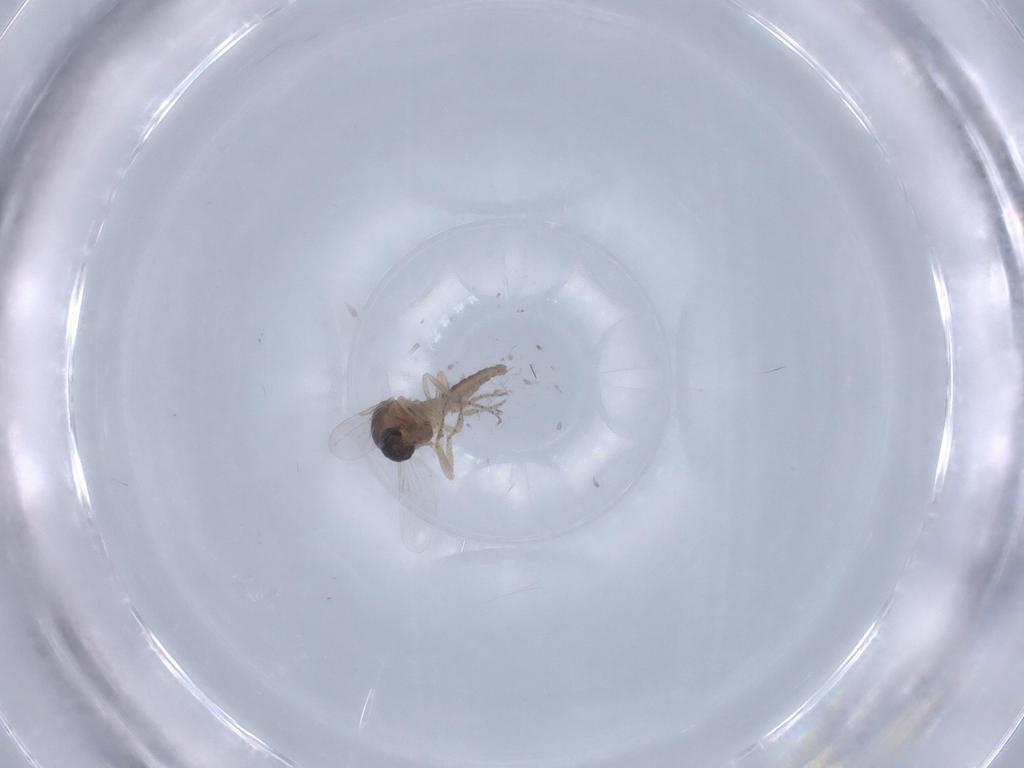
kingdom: Animalia
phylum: Arthropoda
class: Insecta
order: Diptera
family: Ceratopogonidae
